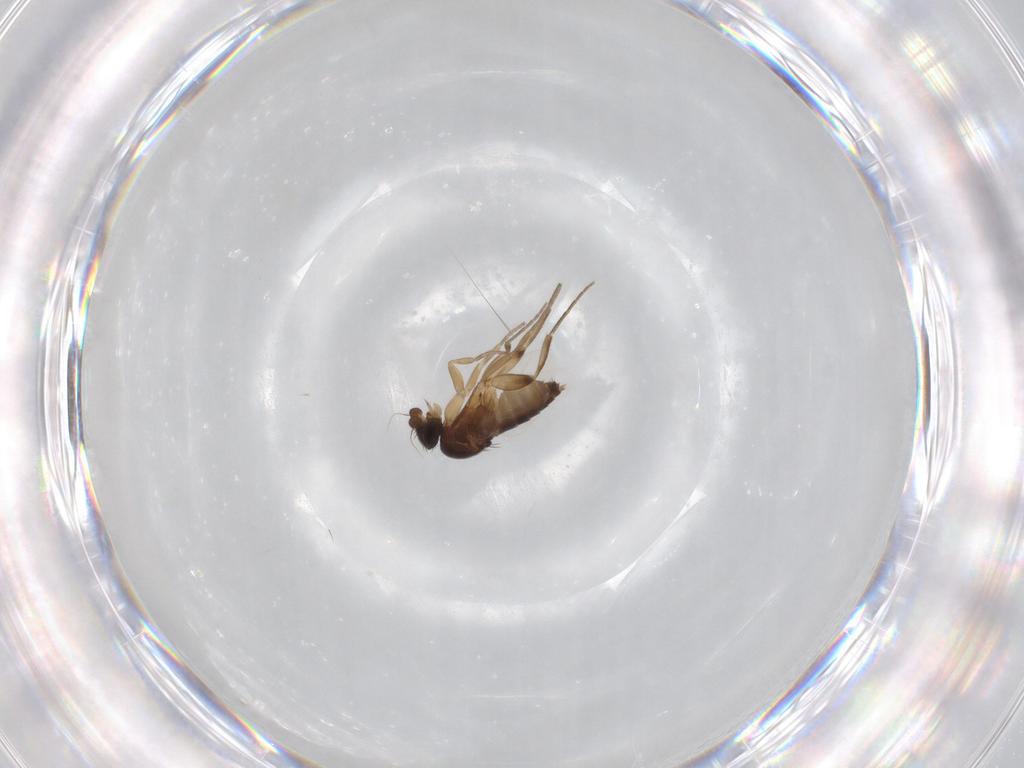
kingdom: Animalia
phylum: Arthropoda
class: Insecta
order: Diptera
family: Phoridae
